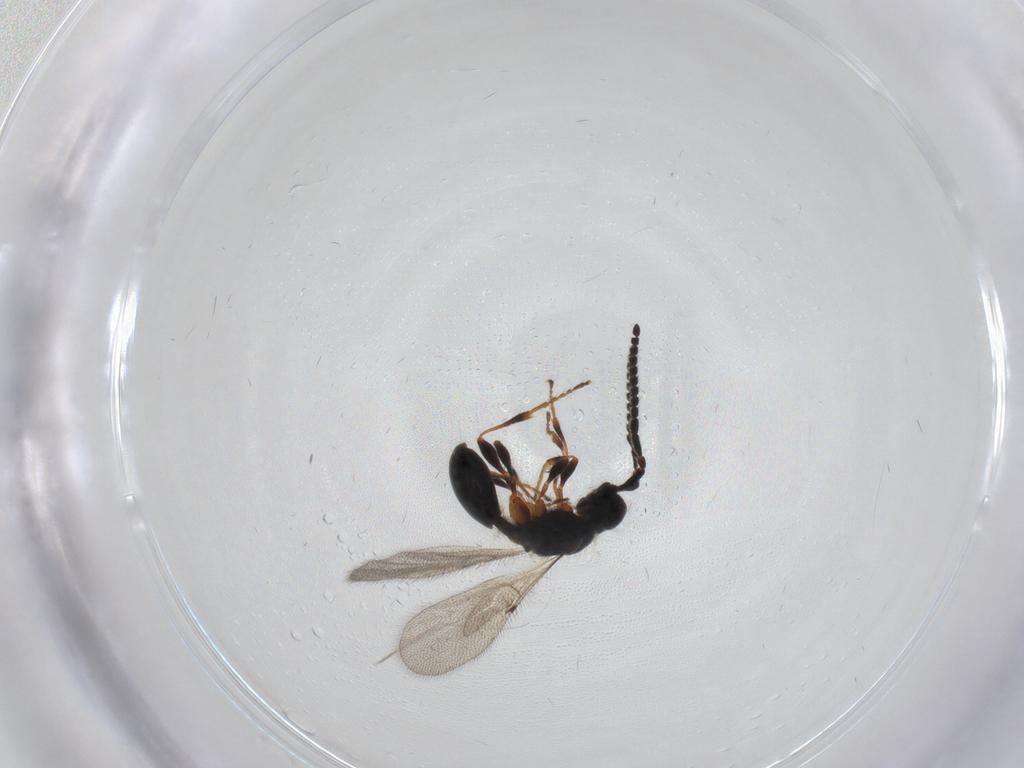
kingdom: Animalia
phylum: Arthropoda
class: Insecta
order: Hymenoptera
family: Diapriidae
